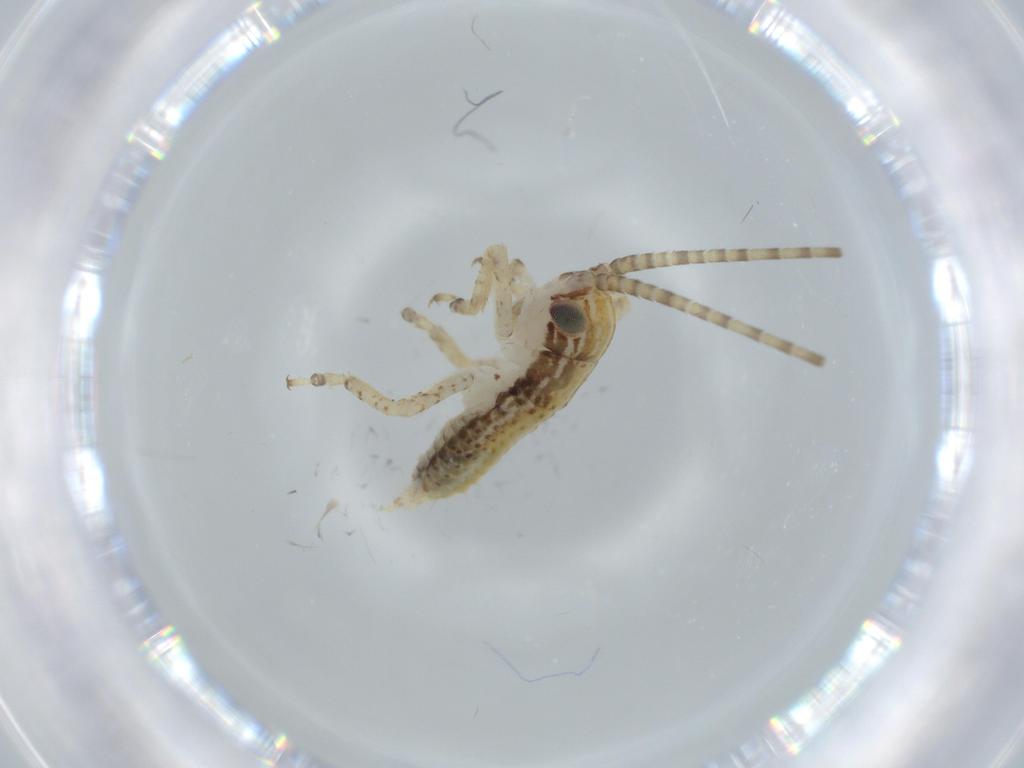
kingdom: Animalia
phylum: Arthropoda
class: Insecta
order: Orthoptera
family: Gryllidae
